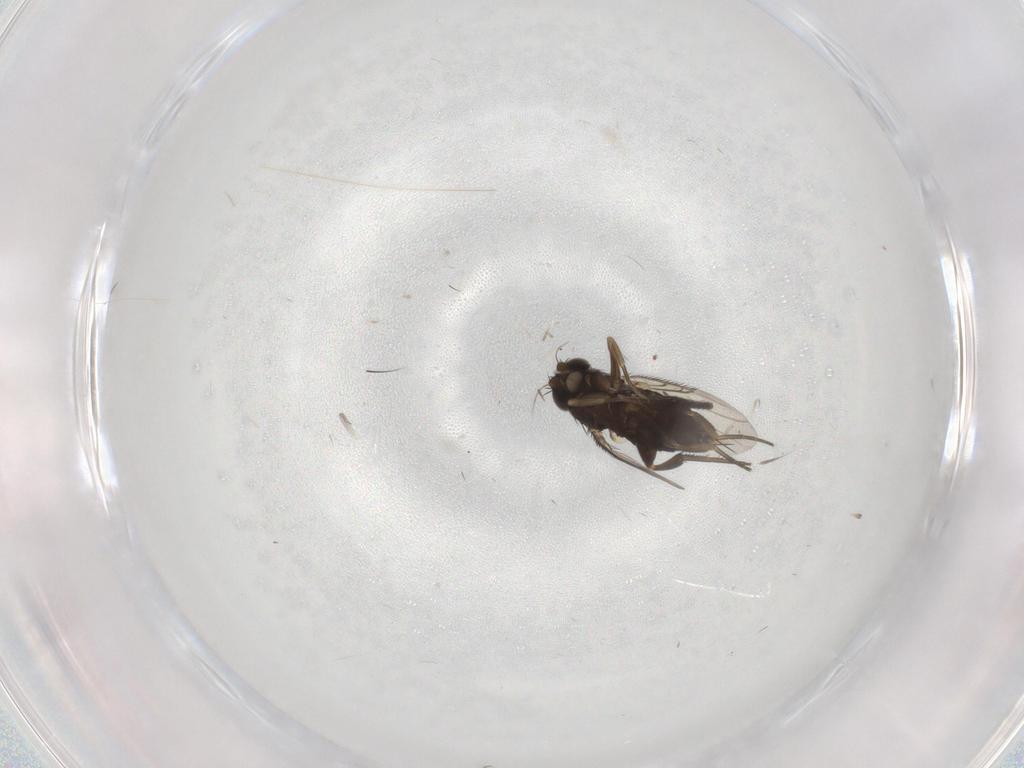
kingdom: Animalia
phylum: Arthropoda
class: Insecta
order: Diptera
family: Phoridae
